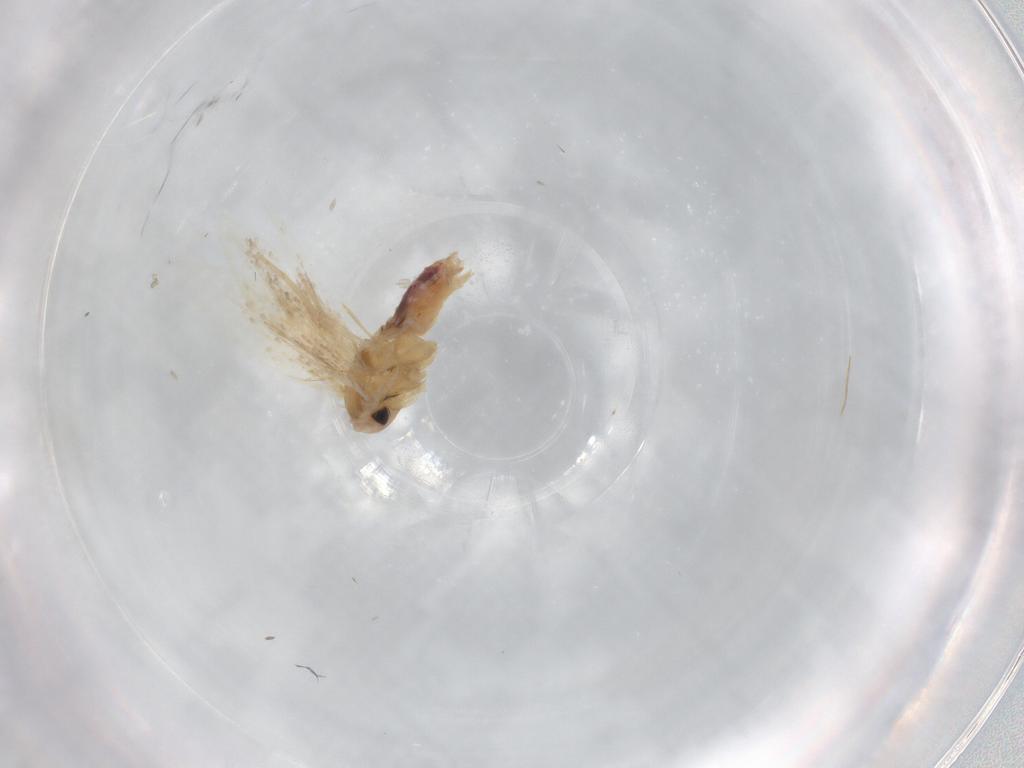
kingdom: Animalia
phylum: Arthropoda
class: Insecta
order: Lepidoptera
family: Bucculatricidae
